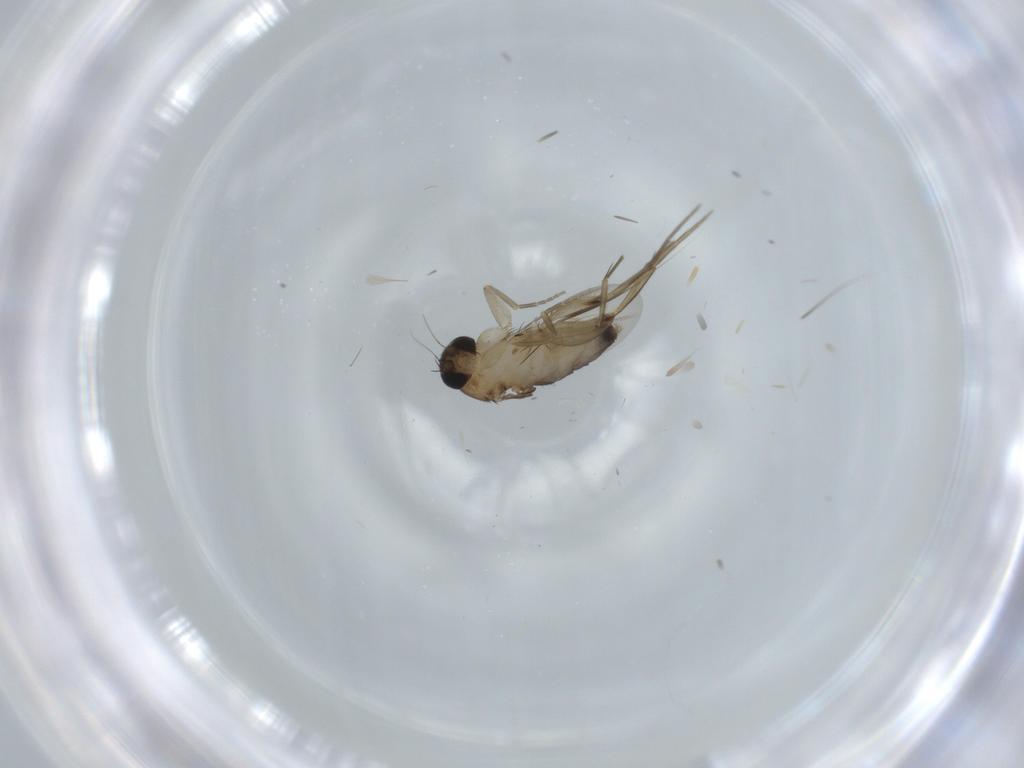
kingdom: Animalia
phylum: Arthropoda
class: Insecta
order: Diptera
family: Phoridae
